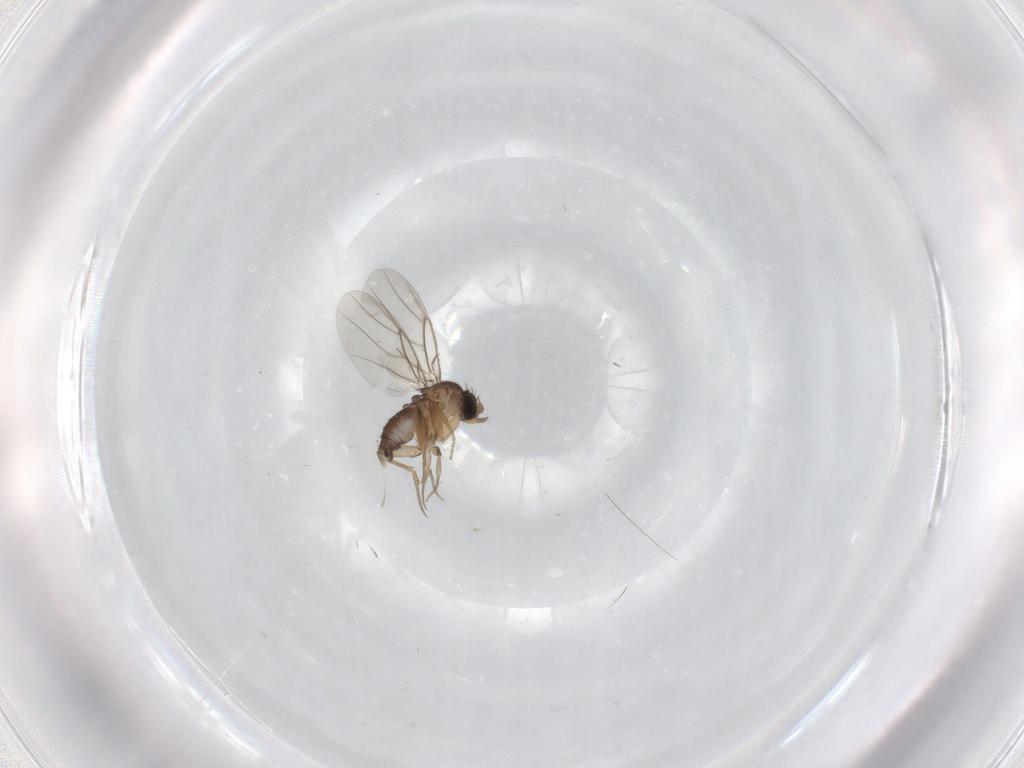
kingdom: Animalia
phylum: Arthropoda
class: Insecta
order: Diptera
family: Phoridae
